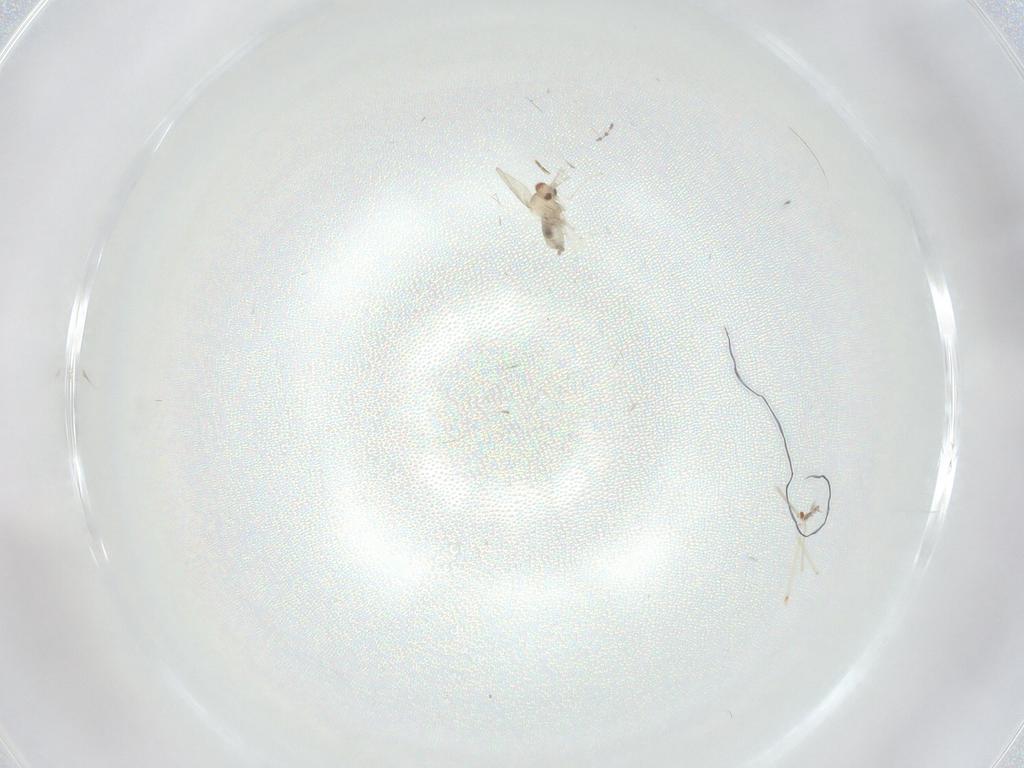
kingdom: Animalia
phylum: Arthropoda
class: Insecta
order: Diptera
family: Cecidomyiidae
